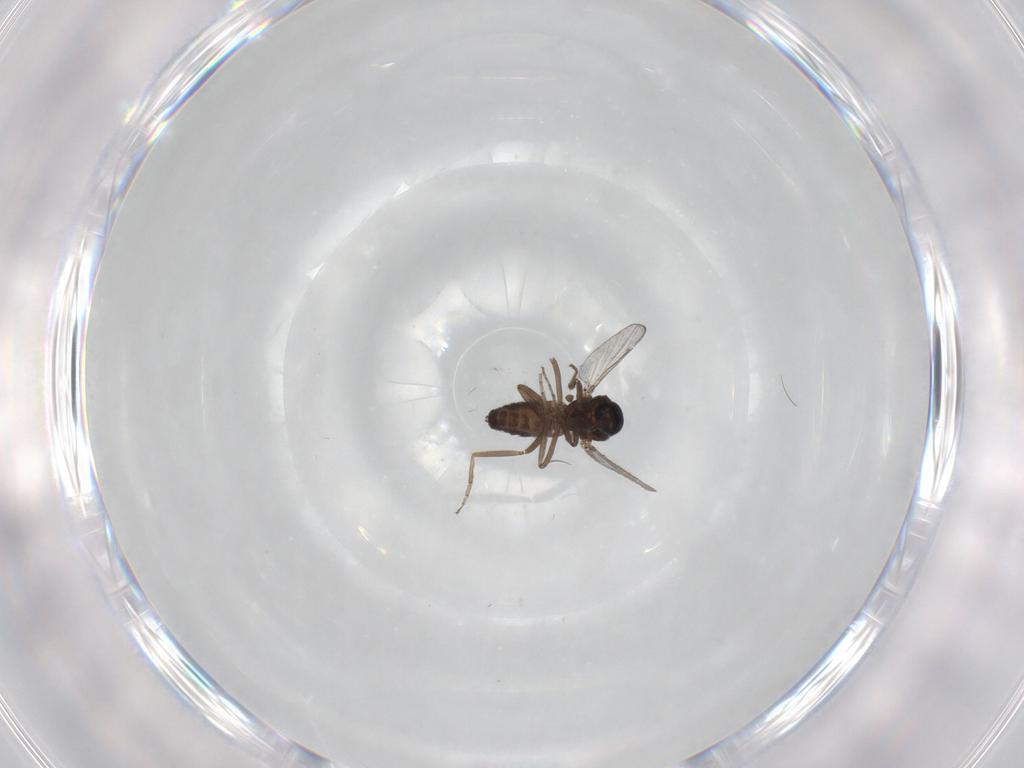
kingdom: Animalia
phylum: Arthropoda
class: Insecta
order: Diptera
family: Ceratopogonidae
